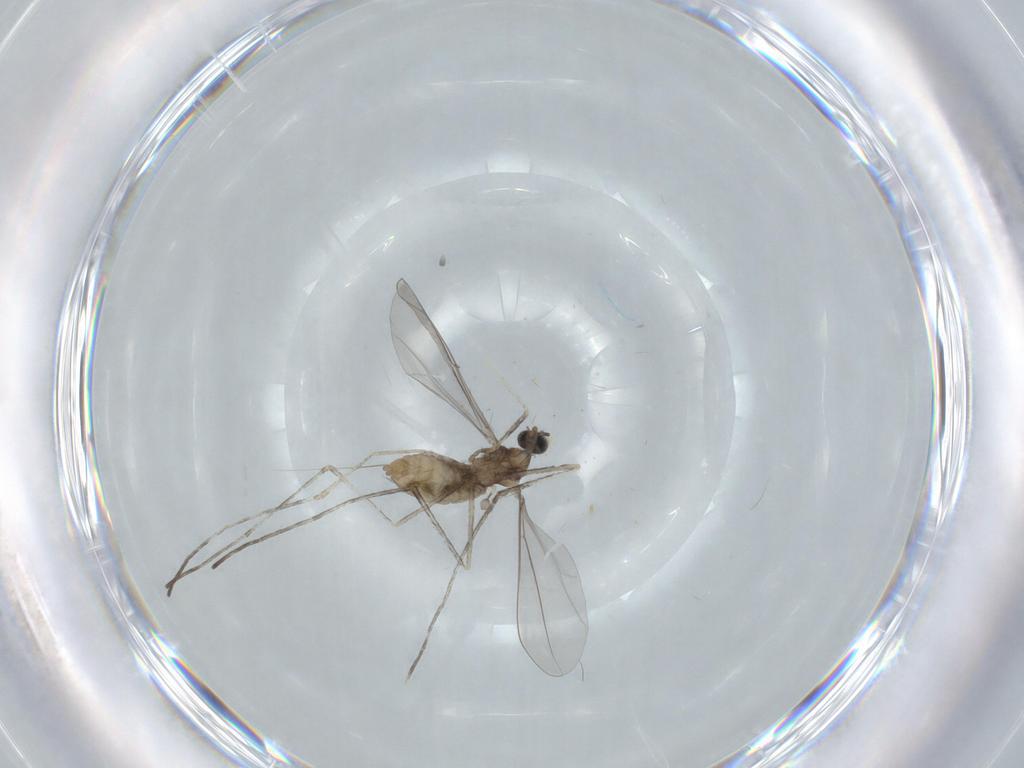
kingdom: Animalia
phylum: Arthropoda
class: Insecta
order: Diptera
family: Cecidomyiidae
